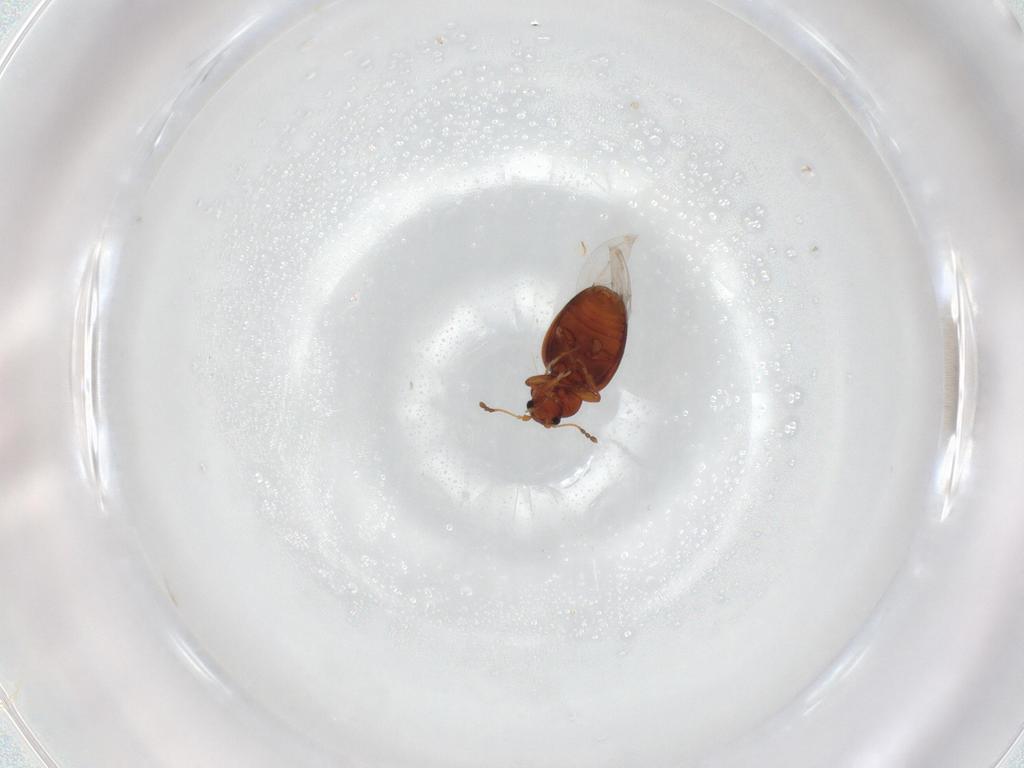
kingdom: Animalia
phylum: Arthropoda
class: Insecta
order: Coleoptera
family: Latridiidae
